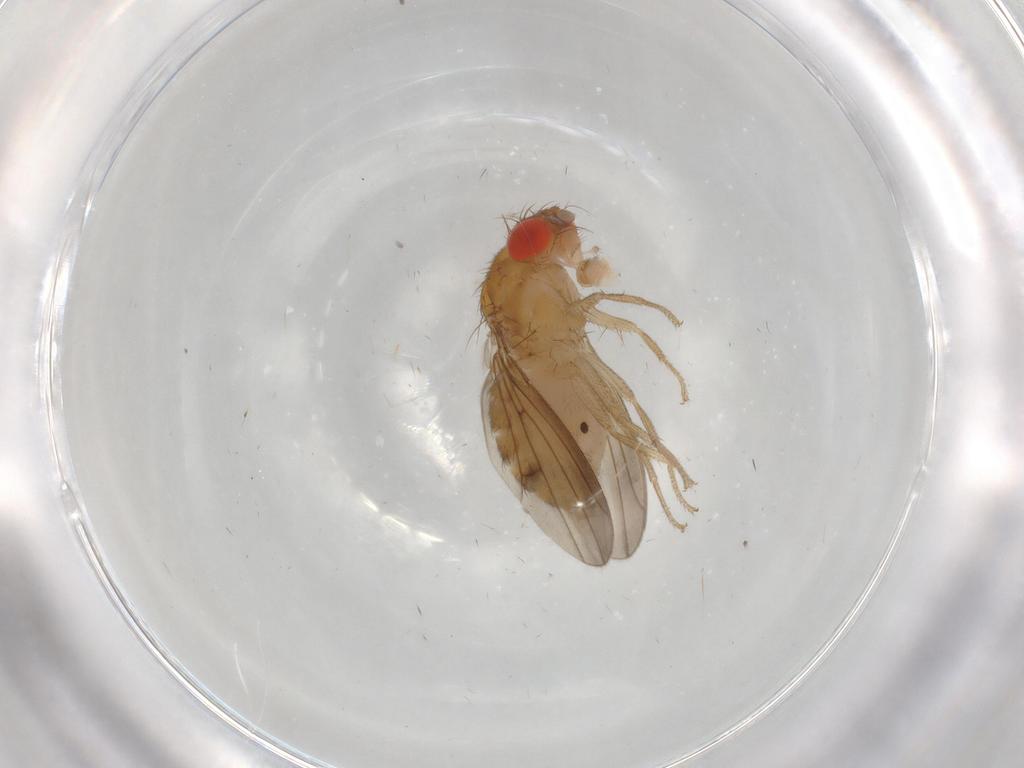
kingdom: Animalia
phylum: Arthropoda
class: Insecta
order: Diptera
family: Drosophilidae
